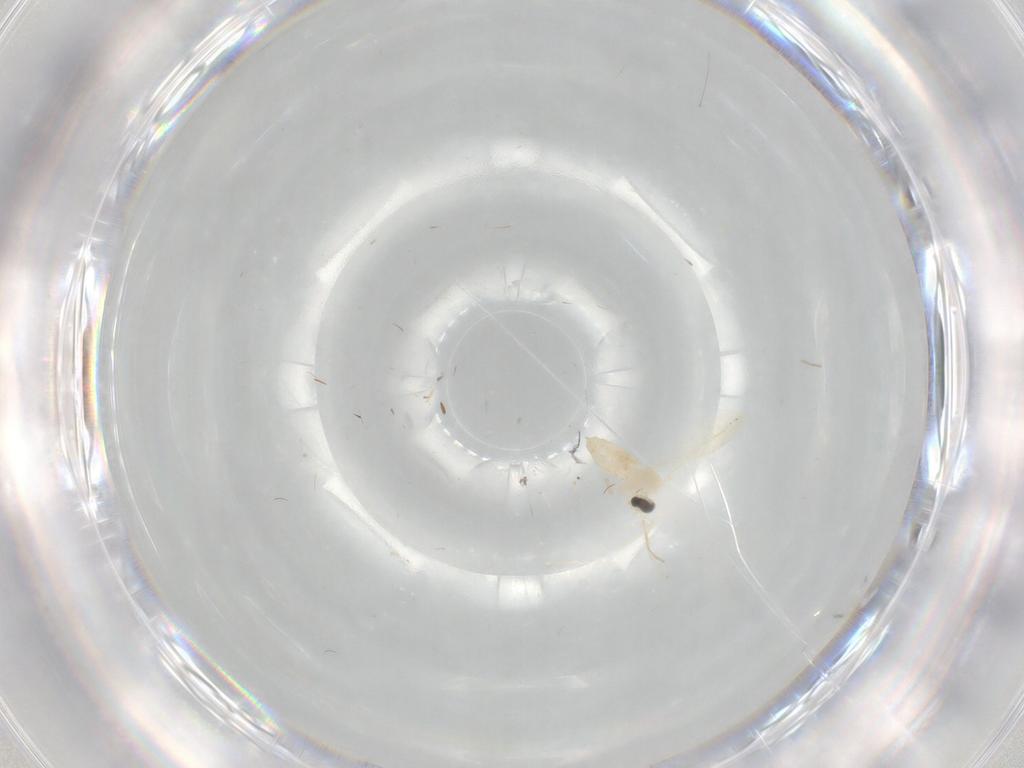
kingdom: Animalia
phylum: Arthropoda
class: Insecta
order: Diptera
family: Cecidomyiidae
